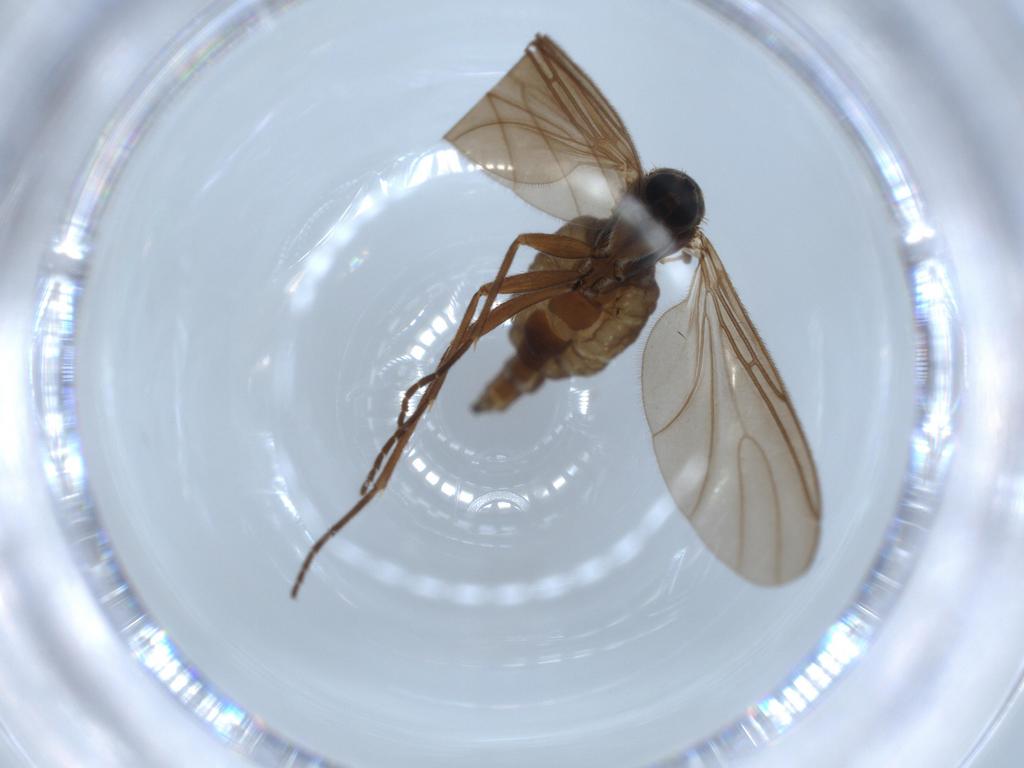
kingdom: Animalia
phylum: Arthropoda
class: Insecta
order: Diptera
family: Sciaridae
